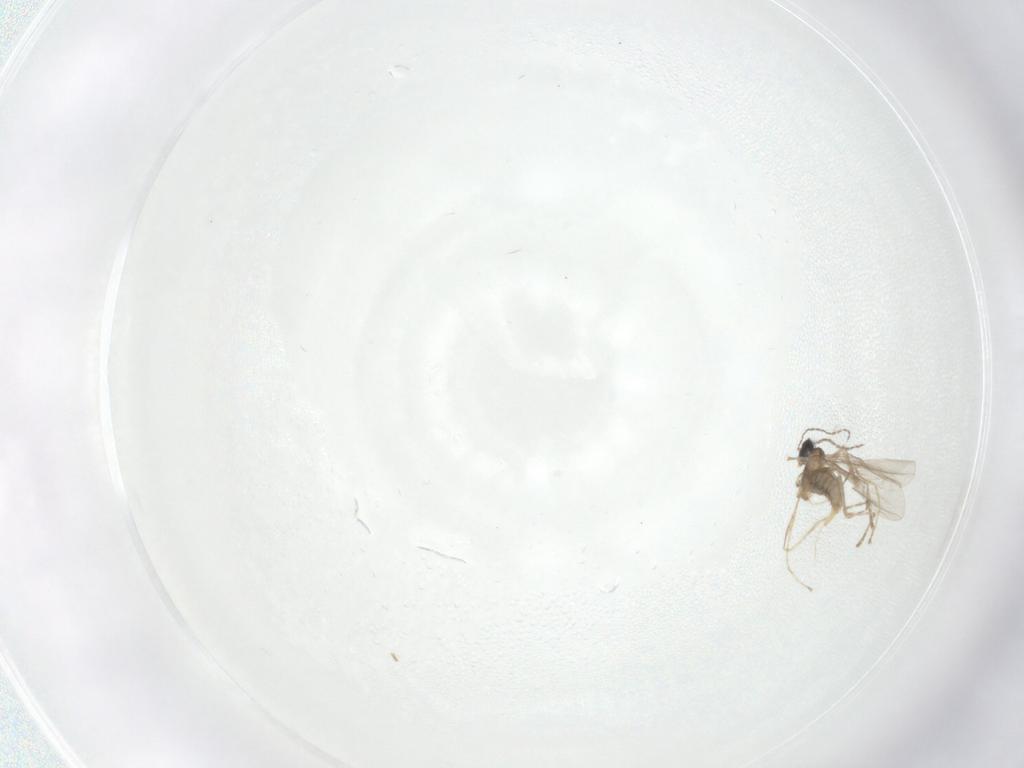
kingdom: Animalia
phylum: Arthropoda
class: Insecta
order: Diptera
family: Cecidomyiidae
